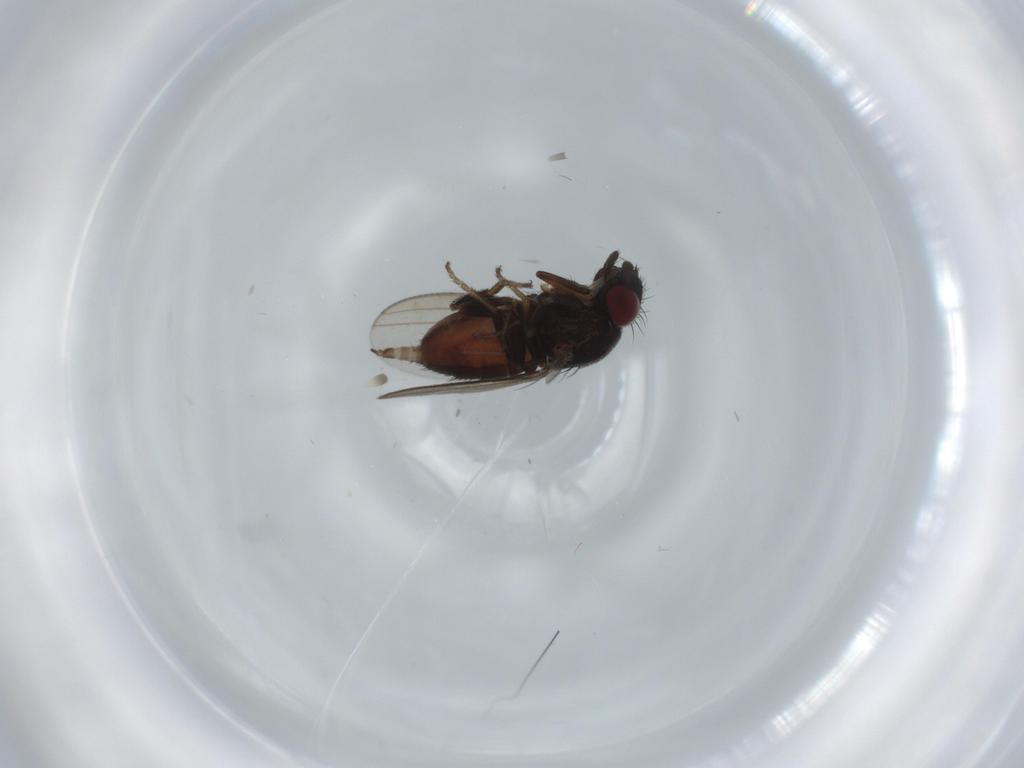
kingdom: Animalia
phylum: Arthropoda
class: Insecta
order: Diptera
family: Milichiidae
